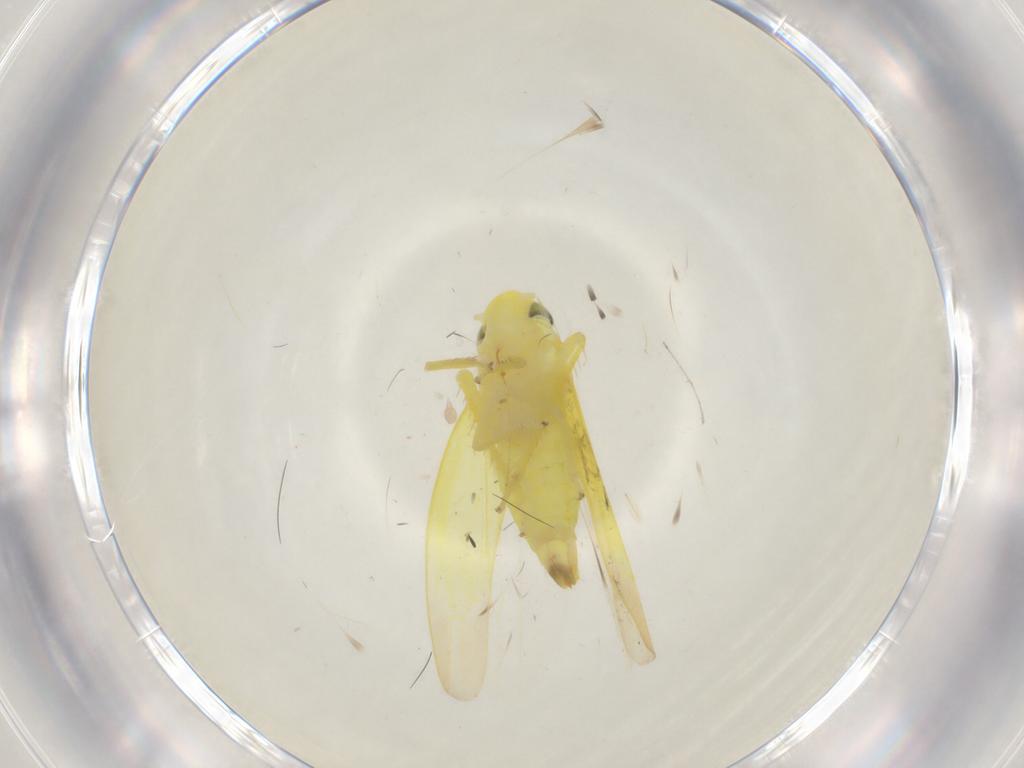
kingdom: Animalia
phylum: Arthropoda
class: Insecta
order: Hemiptera
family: Cicadellidae
